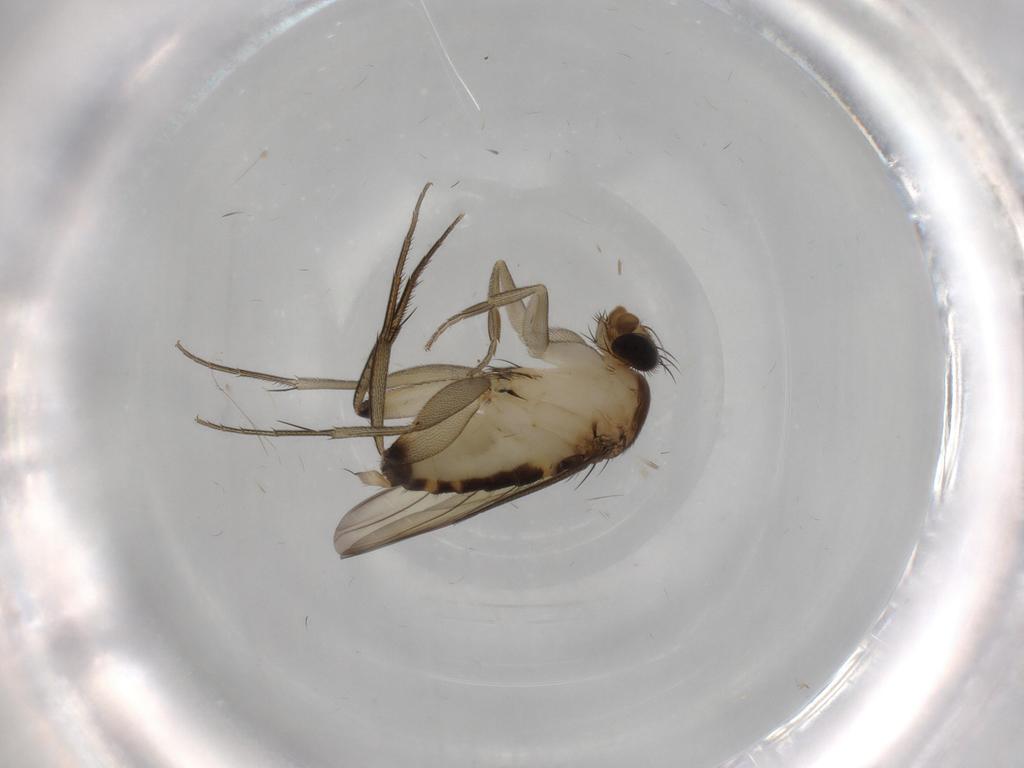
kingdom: Animalia
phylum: Arthropoda
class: Insecta
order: Diptera
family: Phoridae
